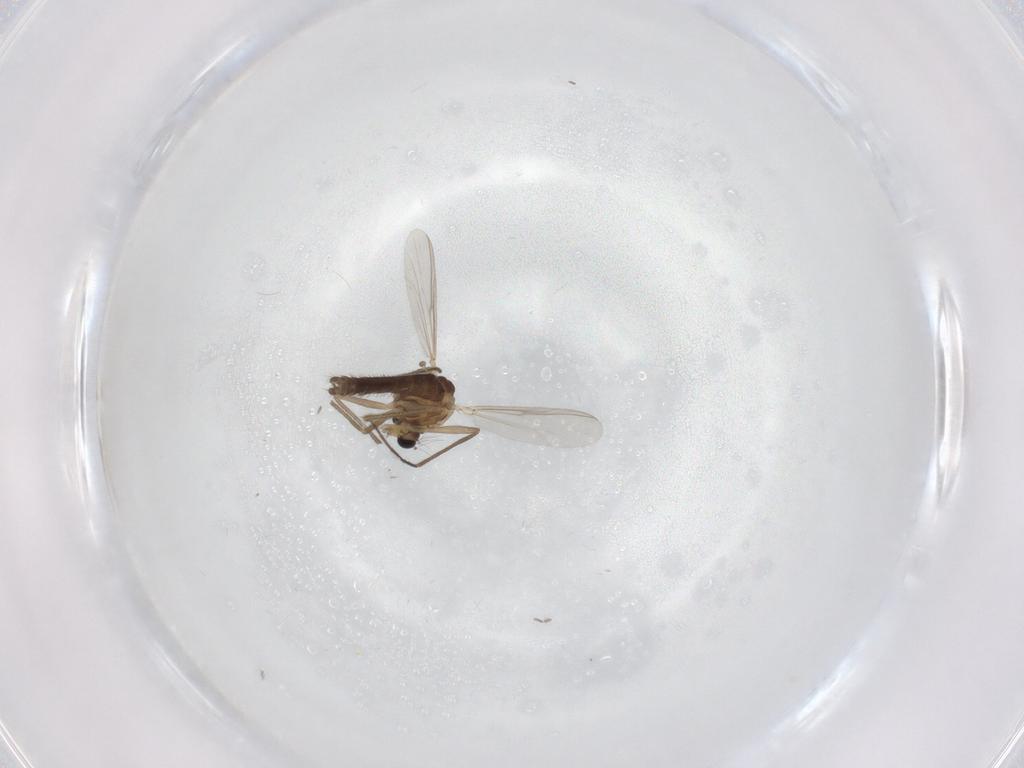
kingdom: Animalia
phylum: Arthropoda
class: Insecta
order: Diptera
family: Chironomidae
